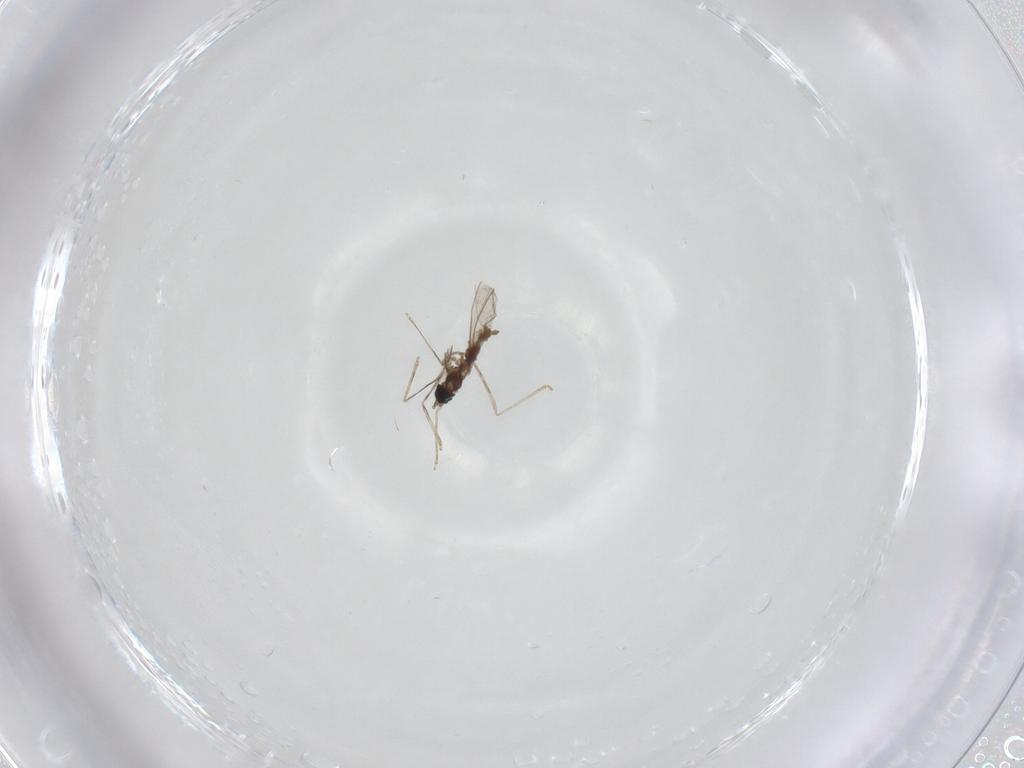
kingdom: Animalia
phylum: Arthropoda
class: Insecta
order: Diptera
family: Cecidomyiidae
